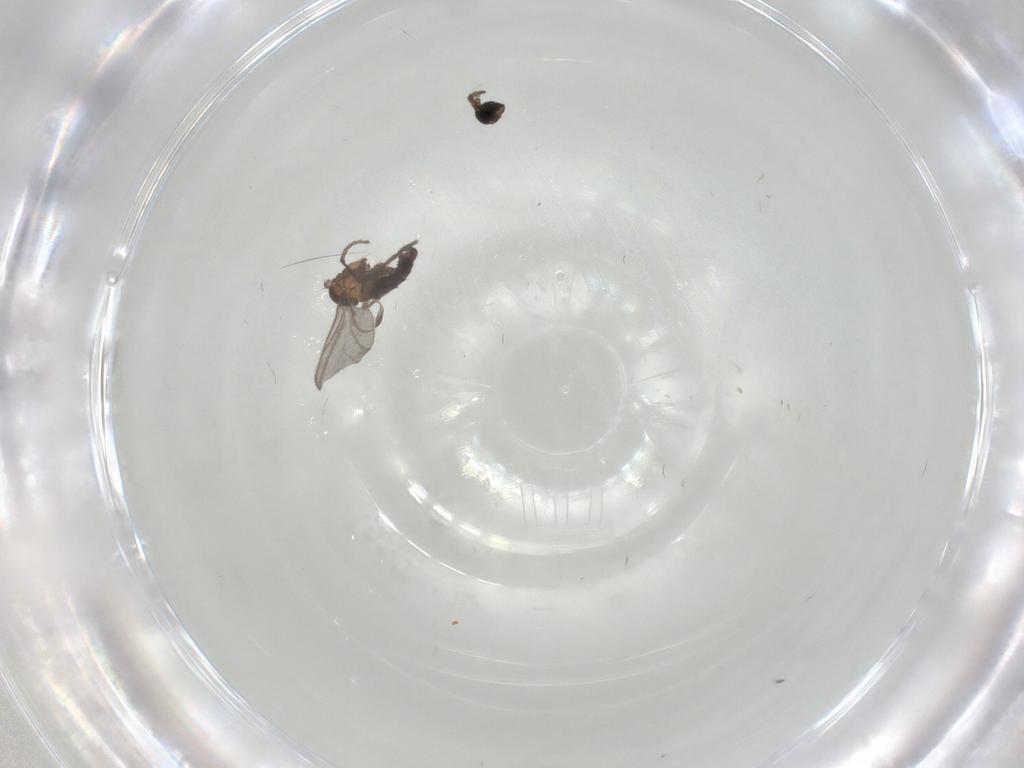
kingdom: Animalia
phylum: Arthropoda
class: Insecta
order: Diptera
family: Sciaridae
